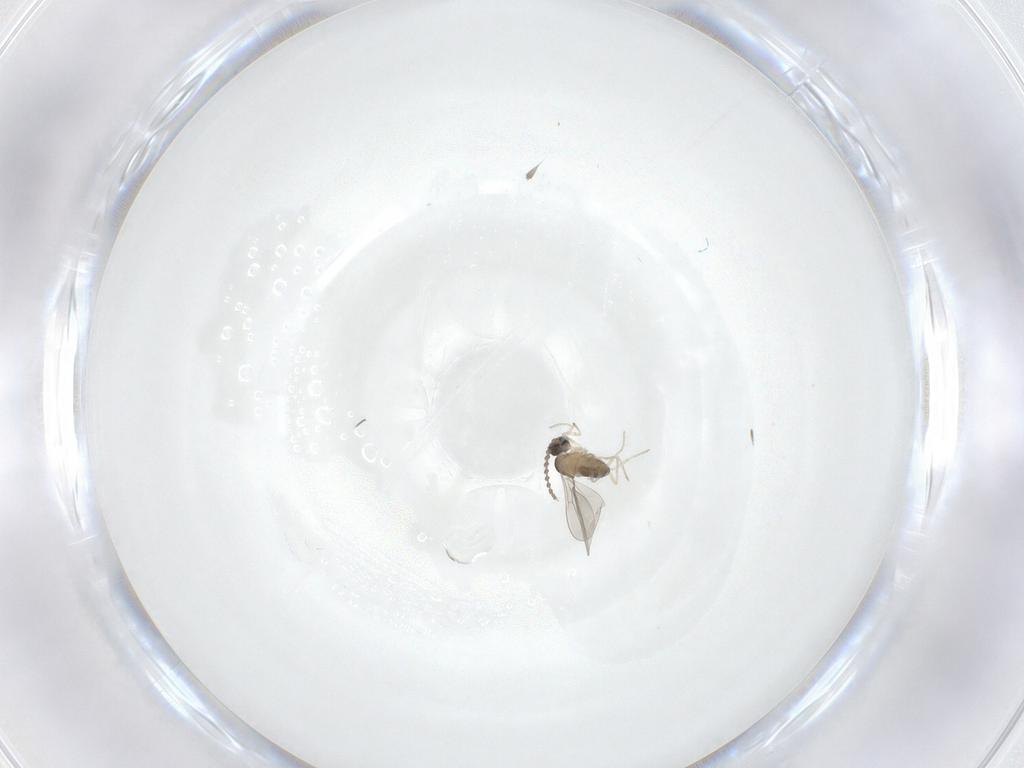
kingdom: Animalia
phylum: Arthropoda
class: Insecta
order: Diptera
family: Cecidomyiidae
